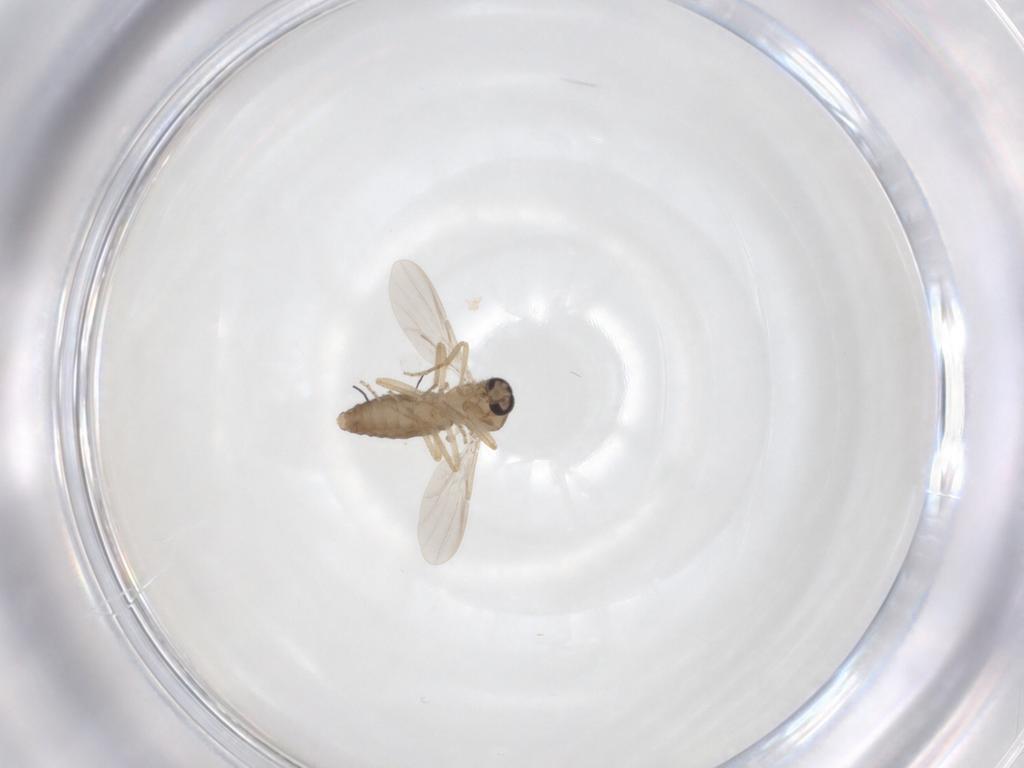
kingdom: Animalia
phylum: Arthropoda
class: Insecta
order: Diptera
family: Ceratopogonidae
